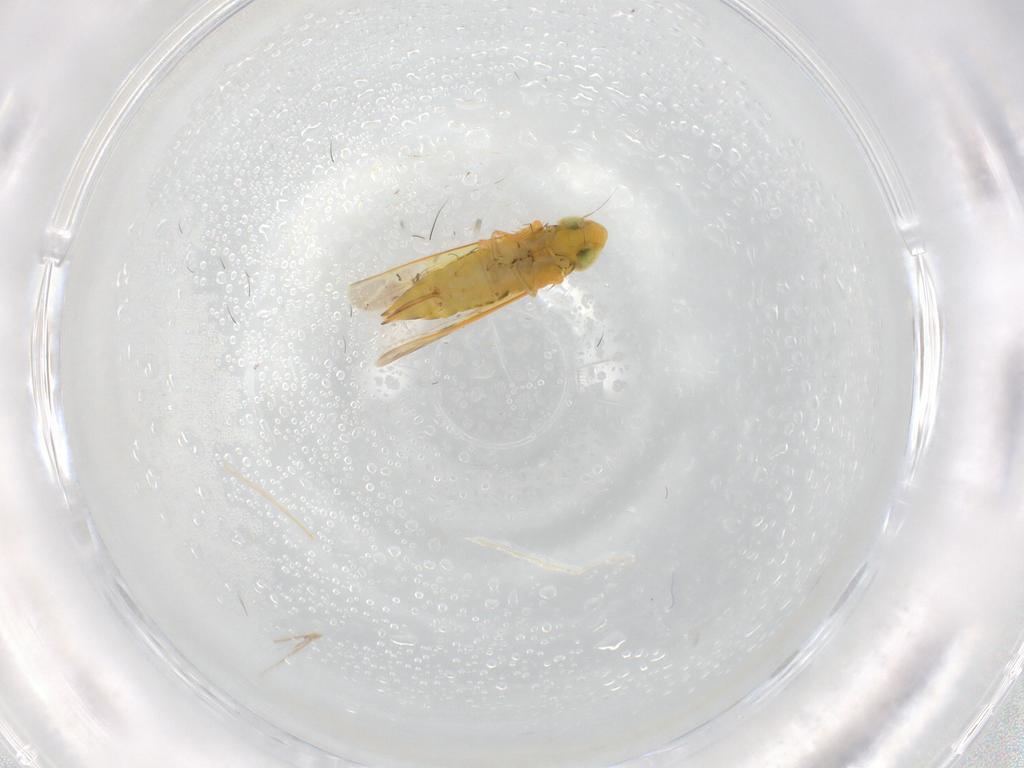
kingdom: Animalia
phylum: Arthropoda
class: Insecta
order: Hemiptera
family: Cicadellidae
